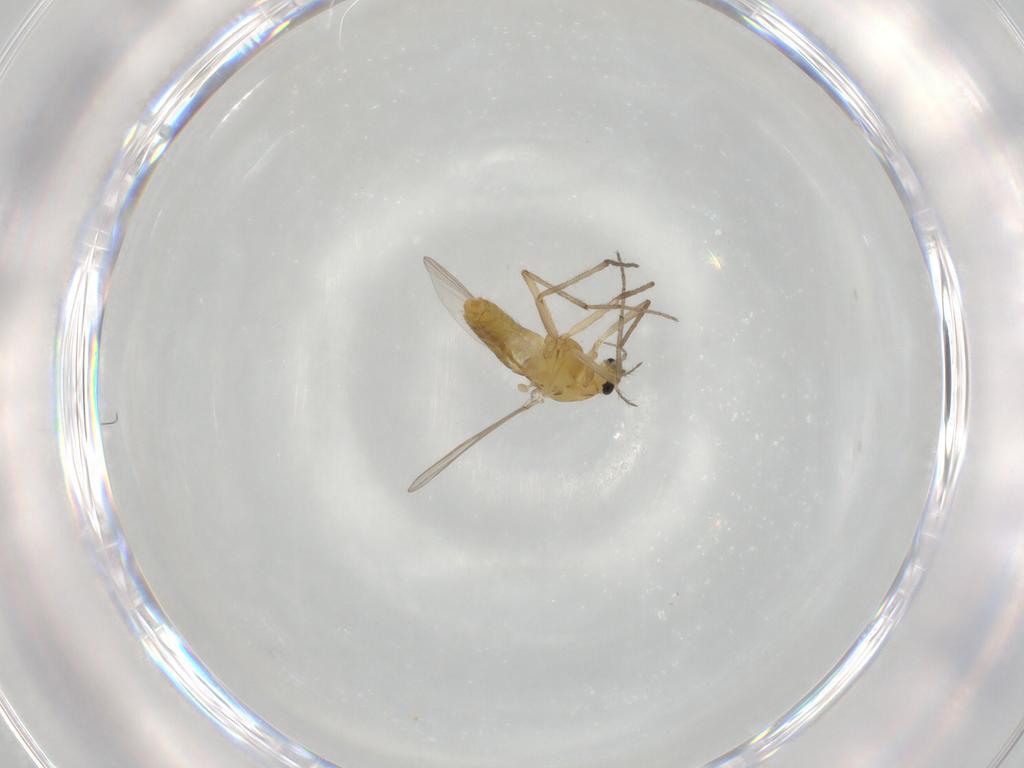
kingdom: Animalia
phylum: Arthropoda
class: Insecta
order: Diptera
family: Chironomidae
